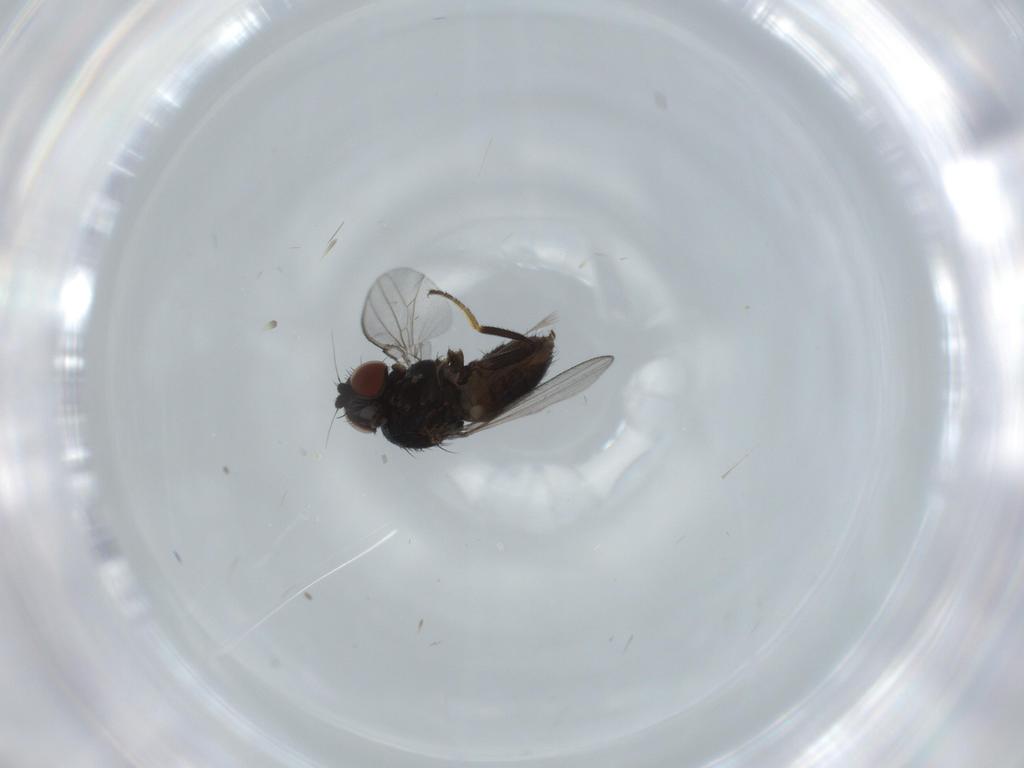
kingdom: Animalia
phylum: Arthropoda
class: Insecta
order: Diptera
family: Milichiidae
